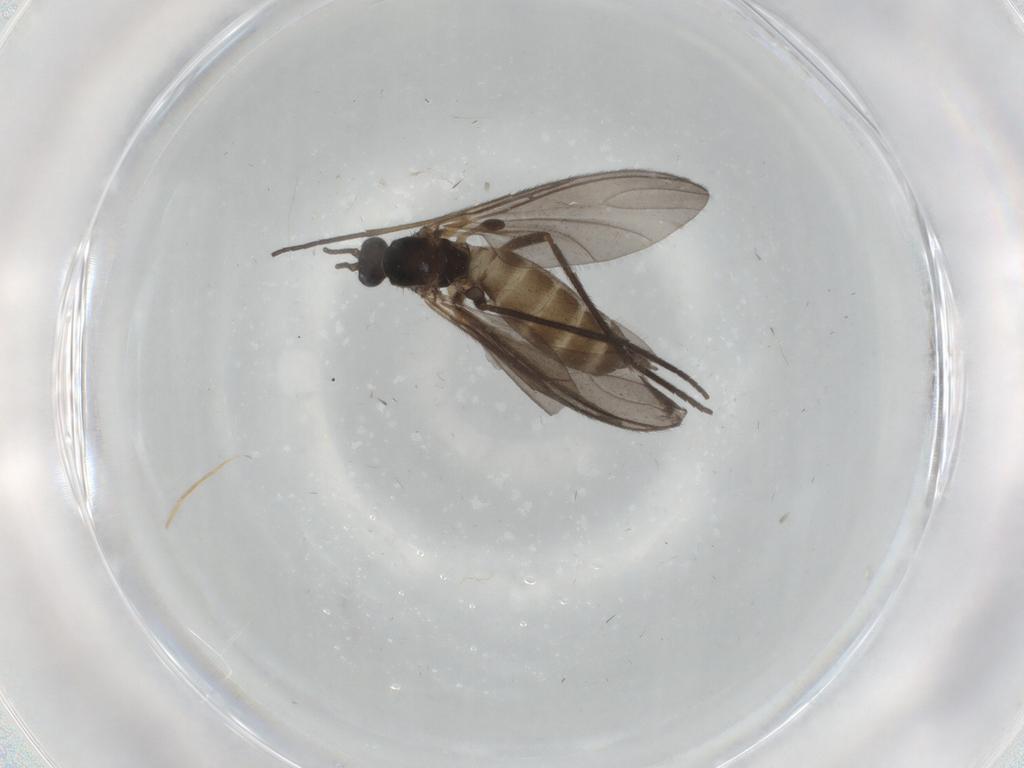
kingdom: Animalia
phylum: Arthropoda
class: Insecta
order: Diptera
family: Sciaridae
